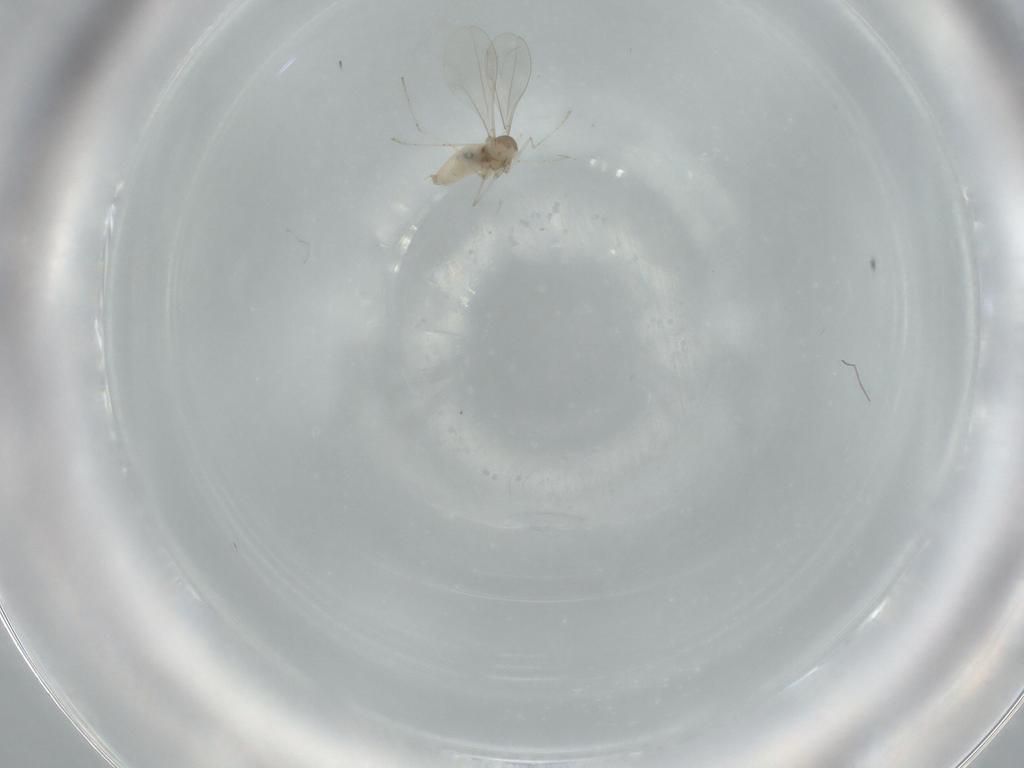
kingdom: Animalia
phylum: Arthropoda
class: Insecta
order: Diptera
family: Cecidomyiidae
